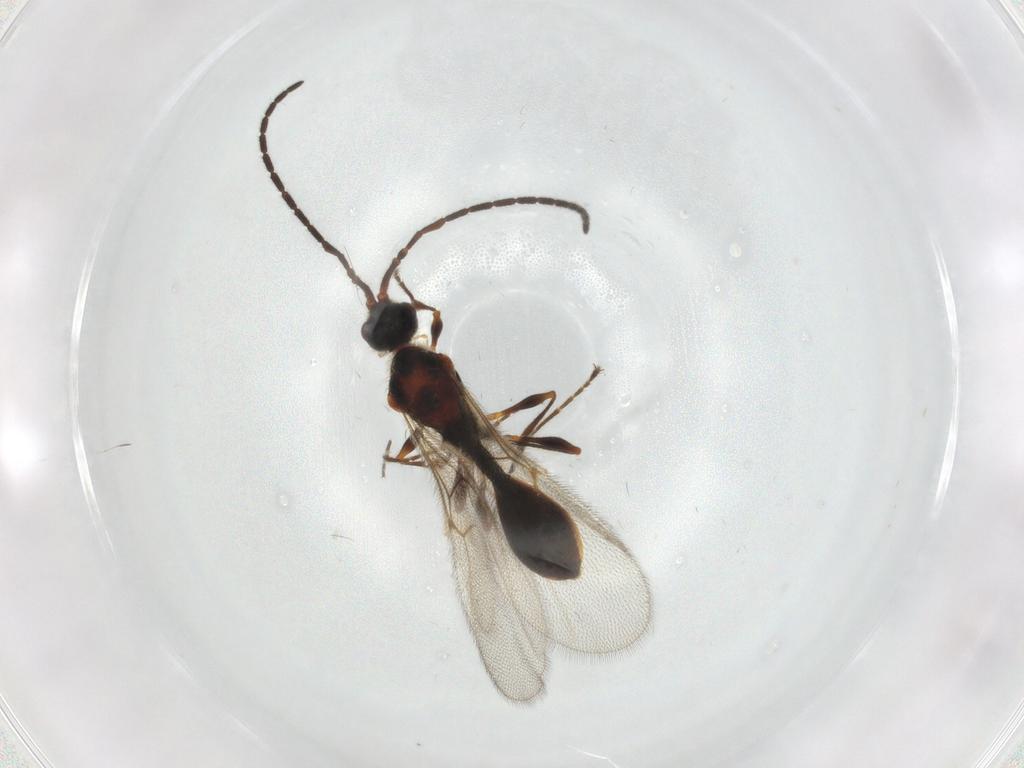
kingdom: Animalia
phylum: Arthropoda
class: Insecta
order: Hymenoptera
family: Diapriidae
